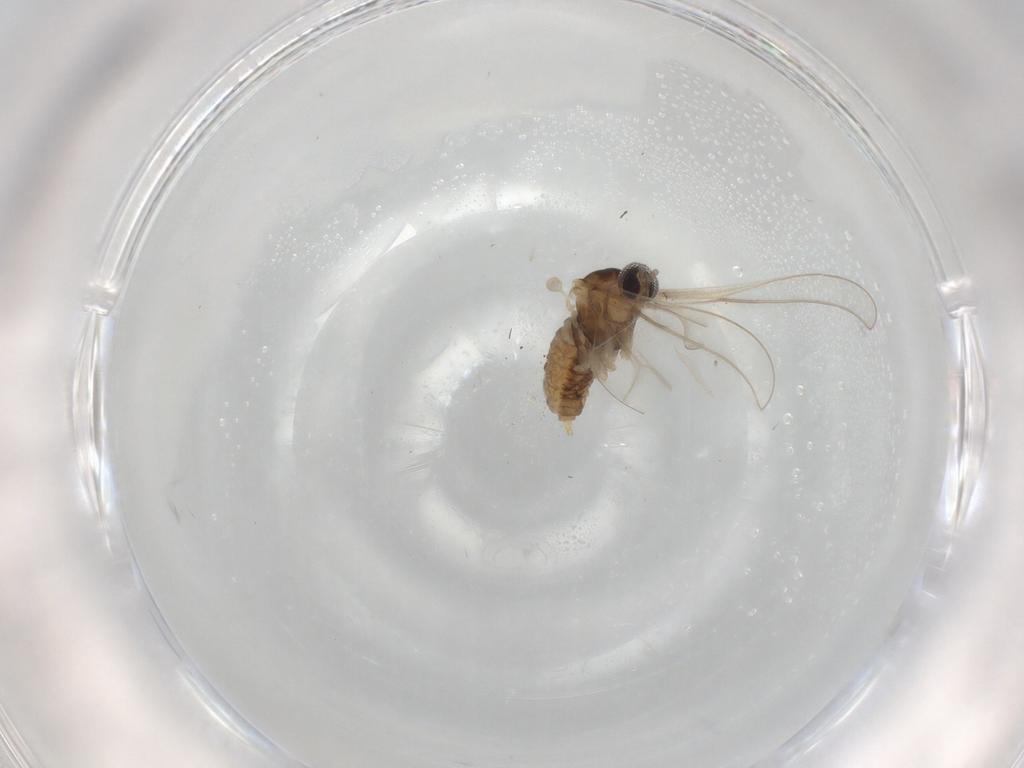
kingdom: Animalia
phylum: Arthropoda
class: Insecta
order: Diptera
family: Cecidomyiidae
